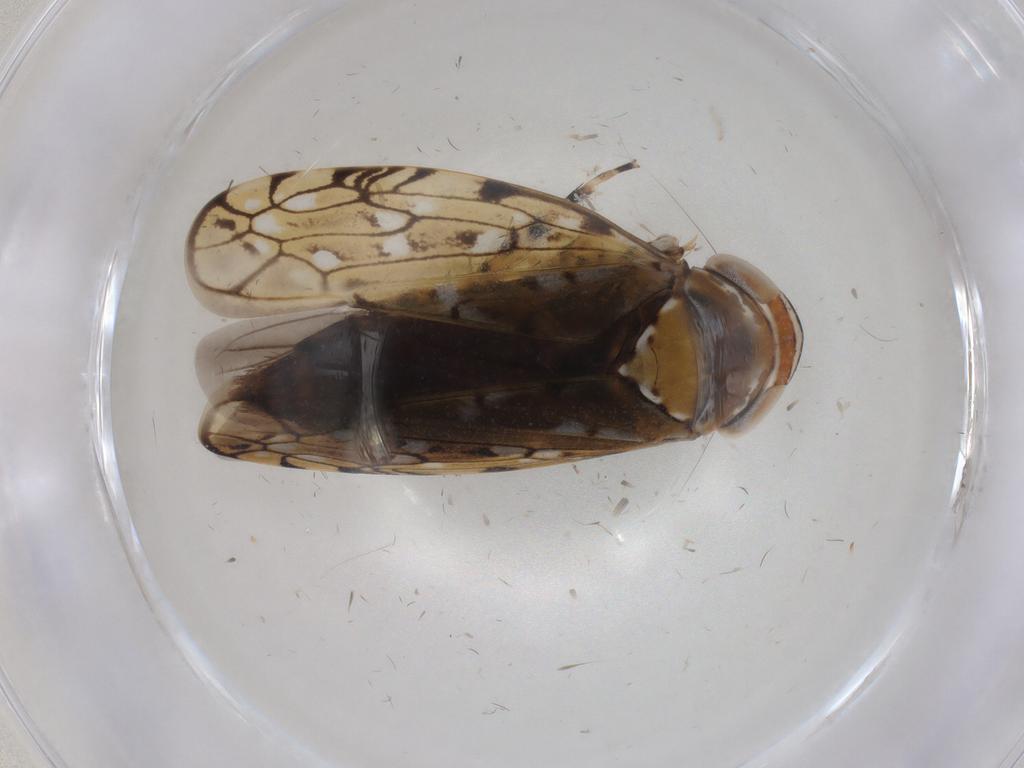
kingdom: Animalia
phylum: Arthropoda
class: Insecta
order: Hemiptera
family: Cicadellidae
